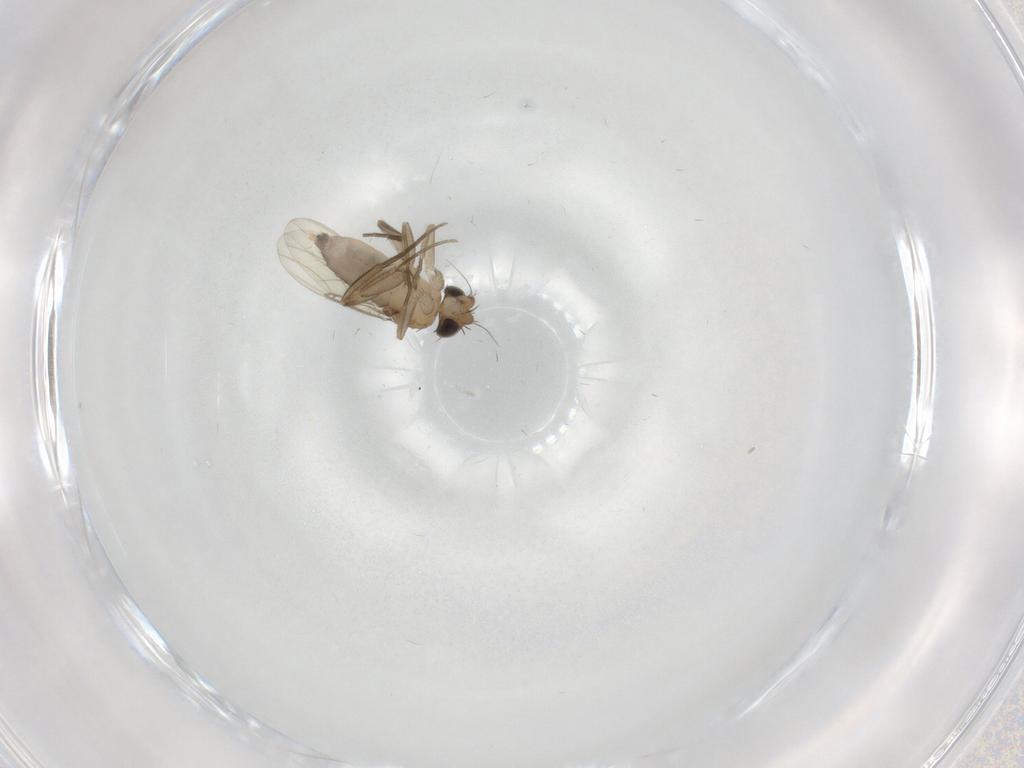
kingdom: Animalia
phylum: Arthropoda
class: Insecta
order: Diptera
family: Phoridae
